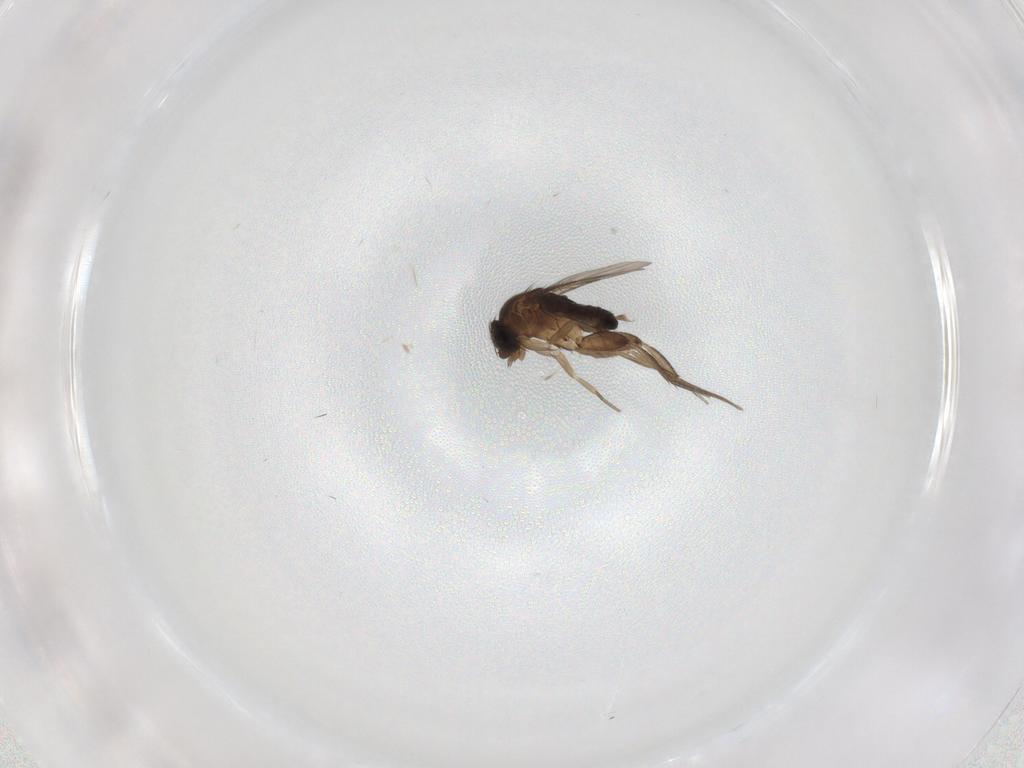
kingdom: Animalia
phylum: Arthropoda
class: Insecta
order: Diptera
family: Phoridae
